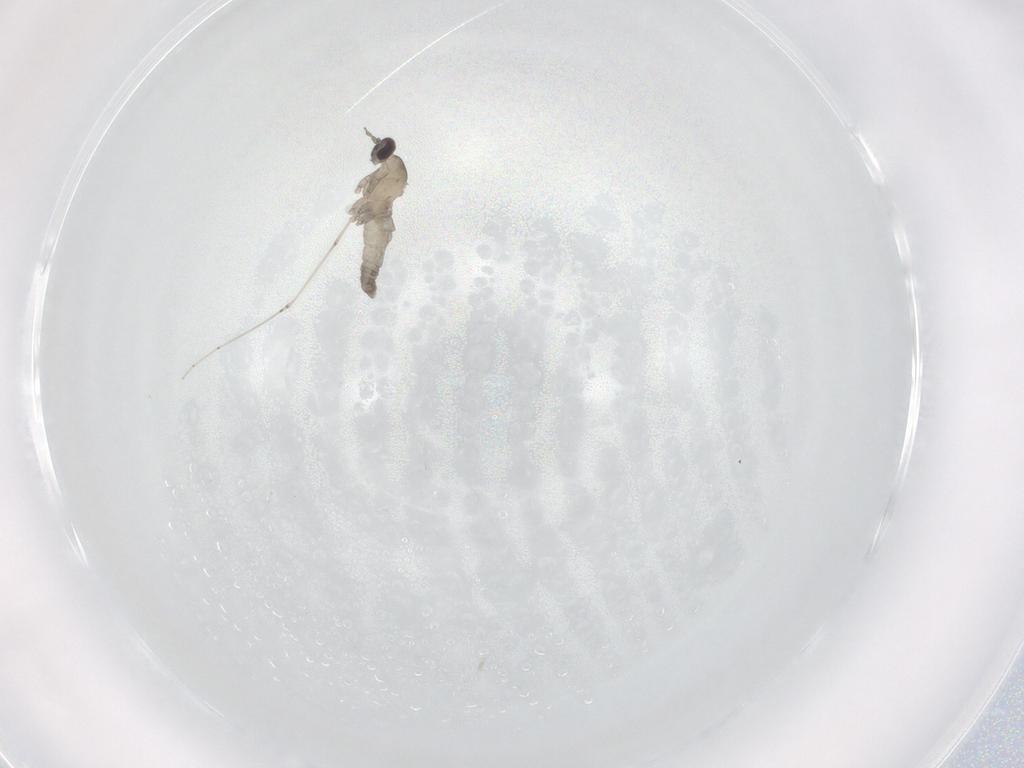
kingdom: Animalia
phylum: Arthropoda
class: Insecta
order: Diptera
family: Cecidomyiidae
